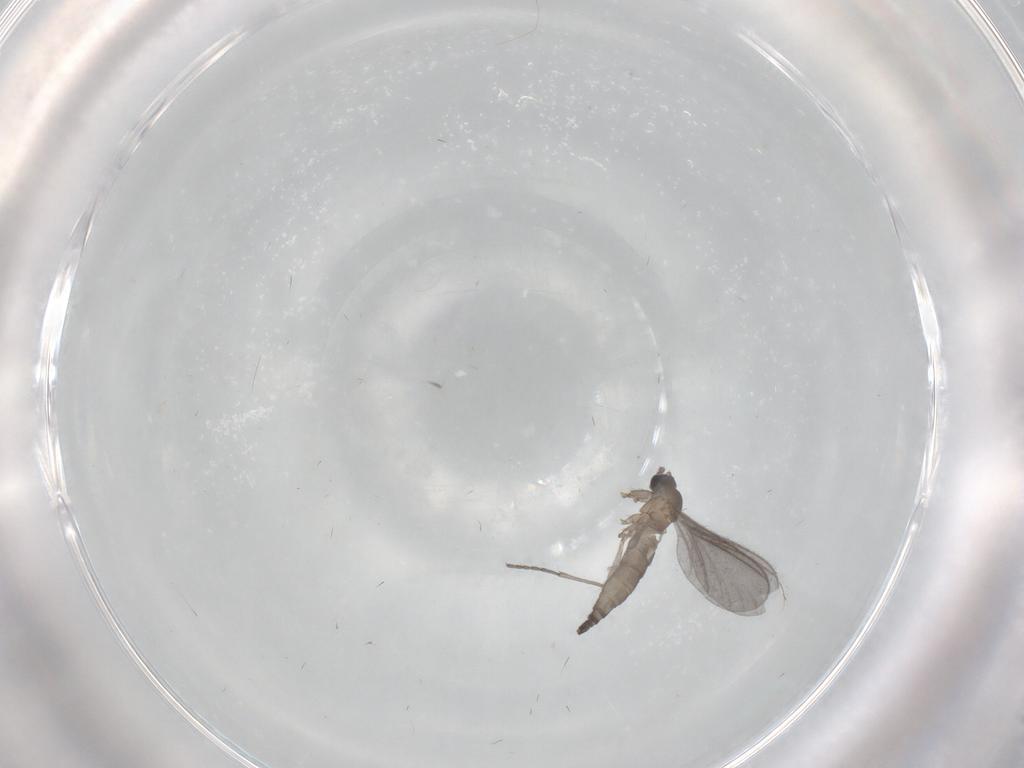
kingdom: Animalia
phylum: Arthropoda
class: Insecta
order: Diptera
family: Sciaridae
